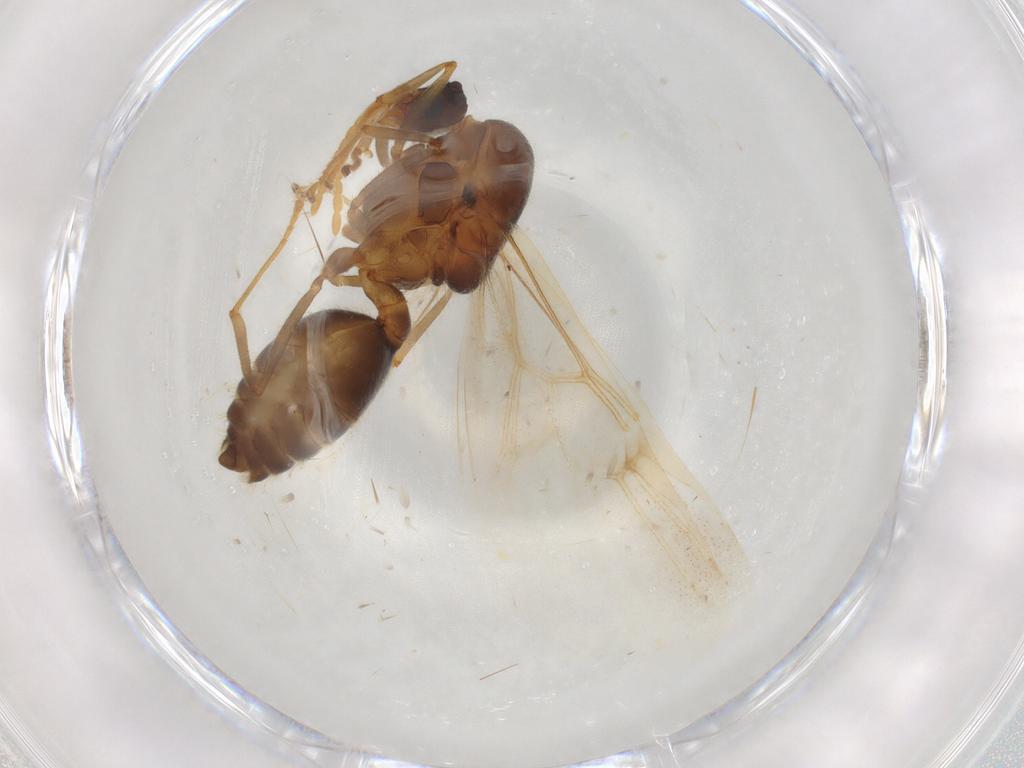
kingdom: Animalia
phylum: Arthropoda
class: Insecta
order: Hymenoptera
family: Formicidae
